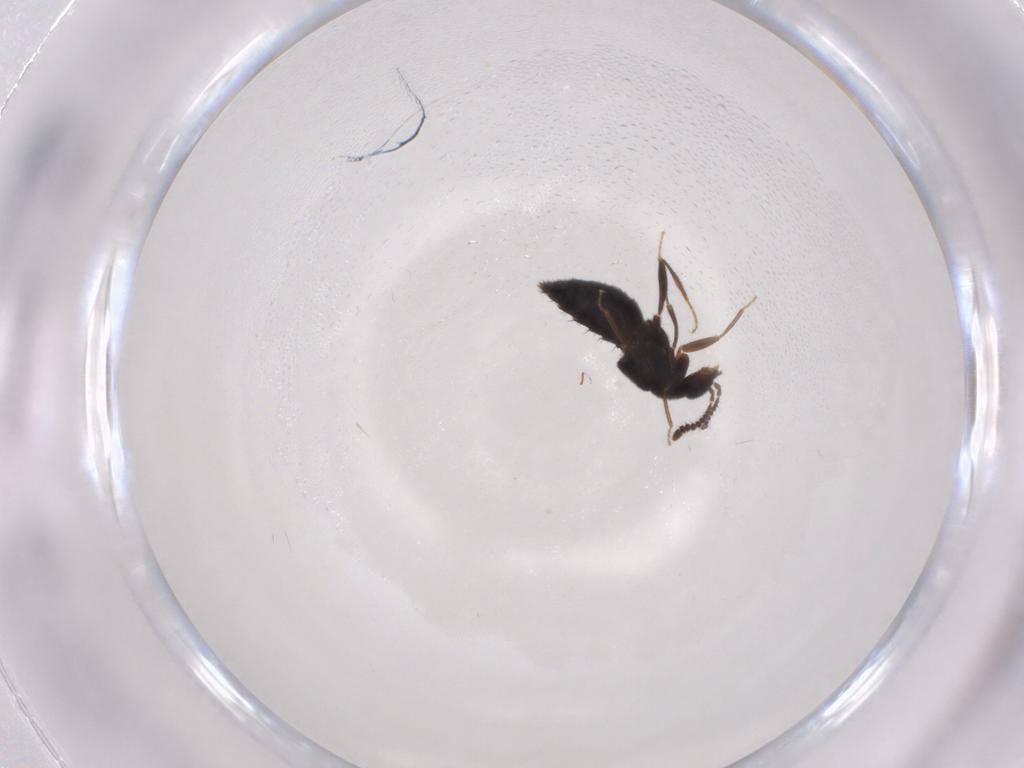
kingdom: Animalia
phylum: Arthropoda
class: Insecta
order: Coleoptera
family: Staphylinidae
